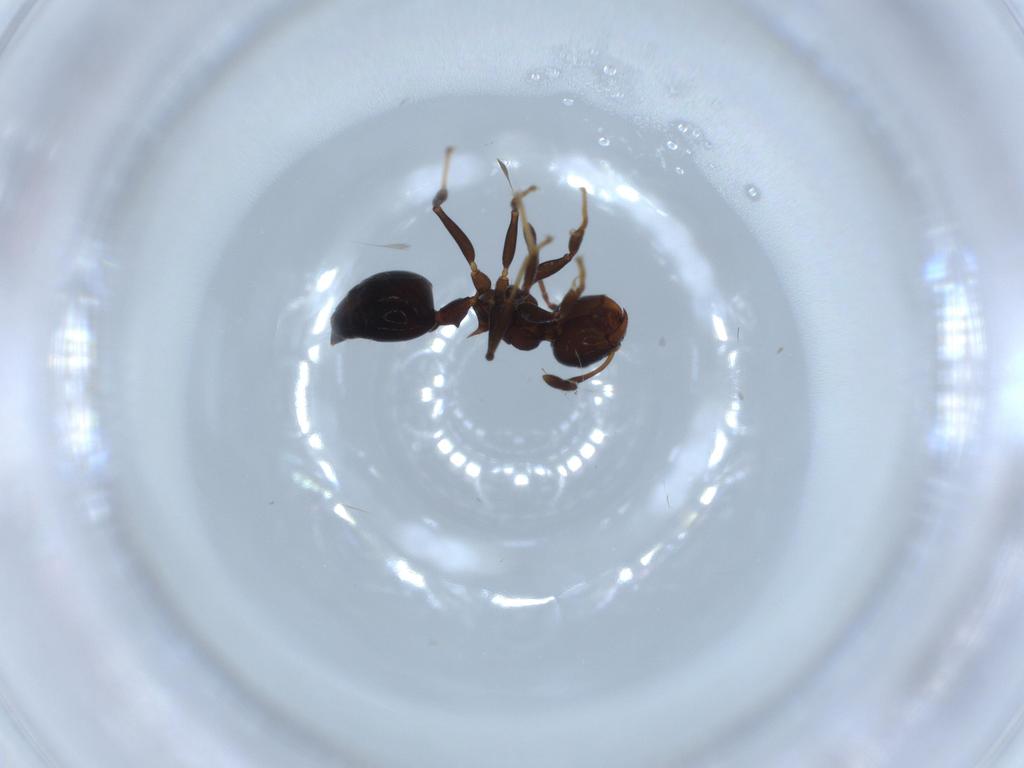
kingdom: Animalia
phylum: Arthropoda
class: Insecta
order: Hymenoptera
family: Formicidae
